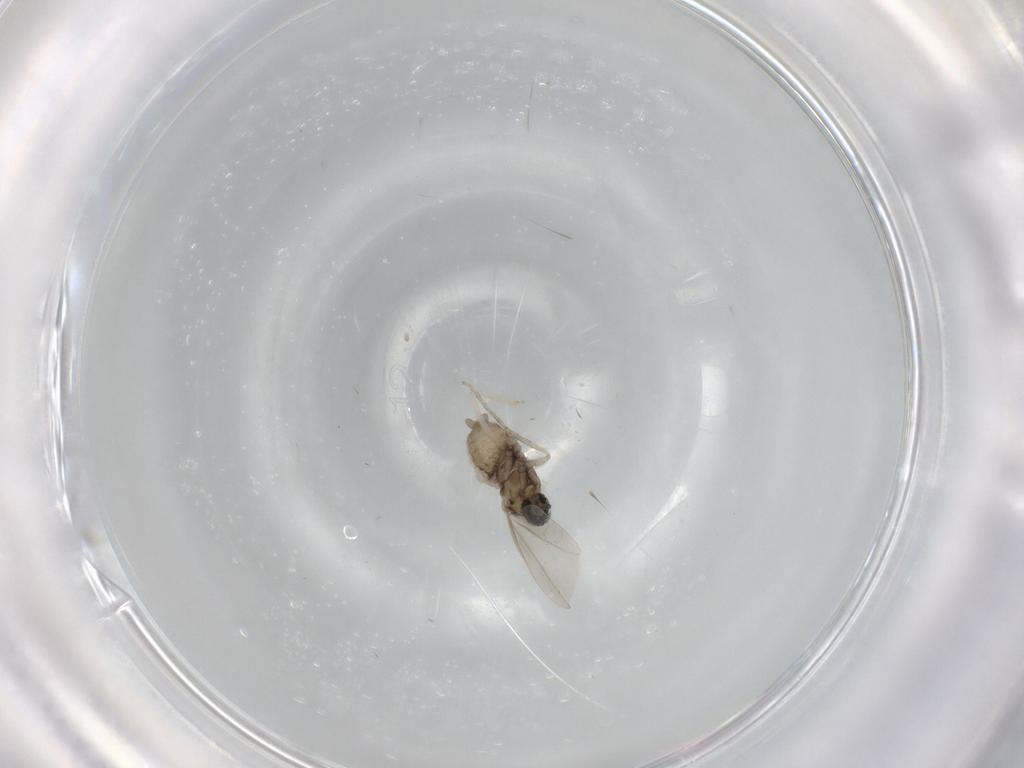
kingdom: Animalia
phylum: Arthropoda
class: Insecta
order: Diptera
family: Cecidomyiidae
